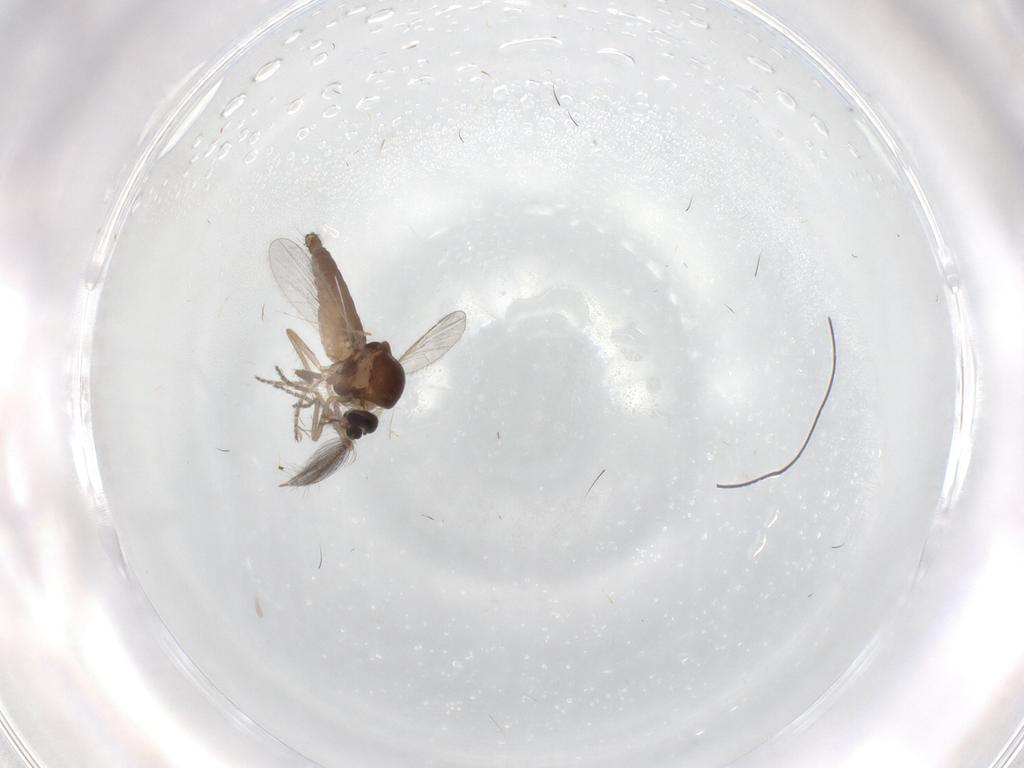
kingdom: Animalia
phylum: Arthropoda
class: Insecta
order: Diptera
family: Ceratopogonidae
